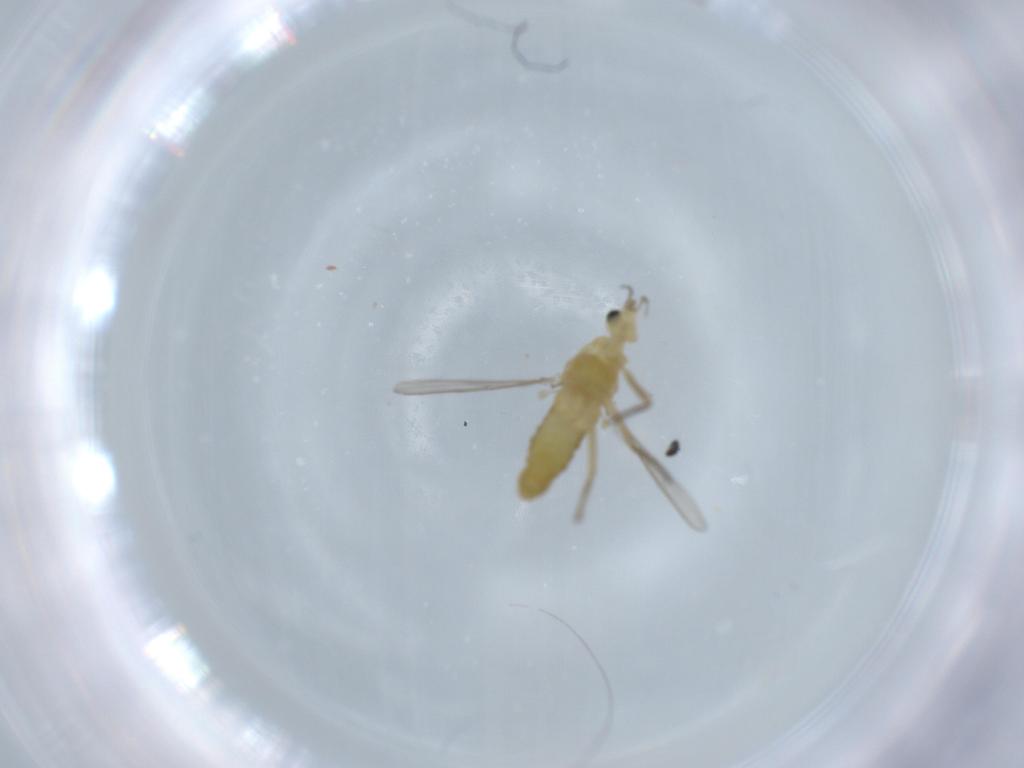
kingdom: Animalia
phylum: Arthropoda
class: Insecta
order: Diptera
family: Chironomidae
